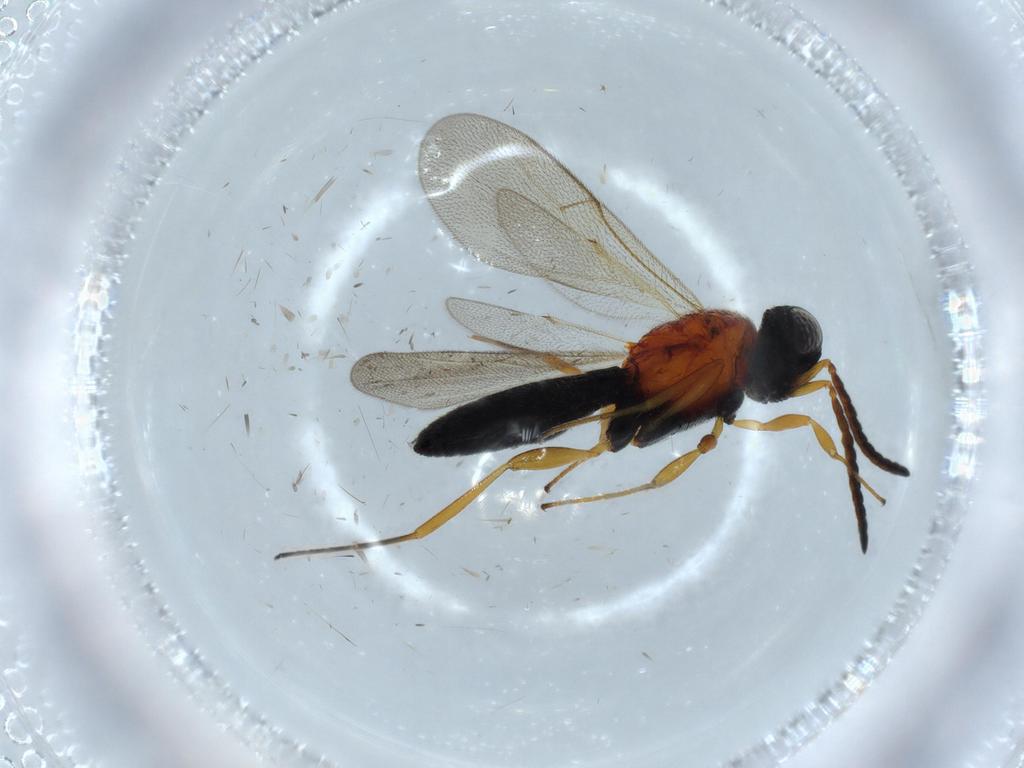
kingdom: Animalia
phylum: Arthropoda
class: Insecta
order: Hymenoptera
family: Scelionidae
